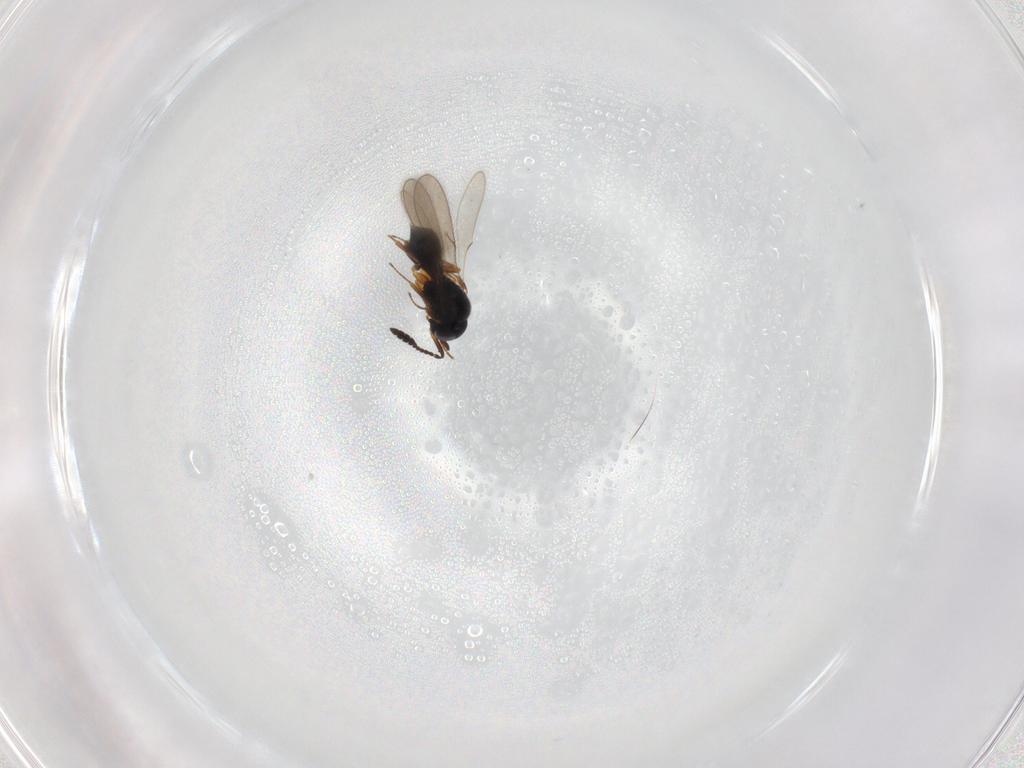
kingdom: Animalia
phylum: Arthropoda
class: Insecta
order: Hymenoptera
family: Scelionidae
